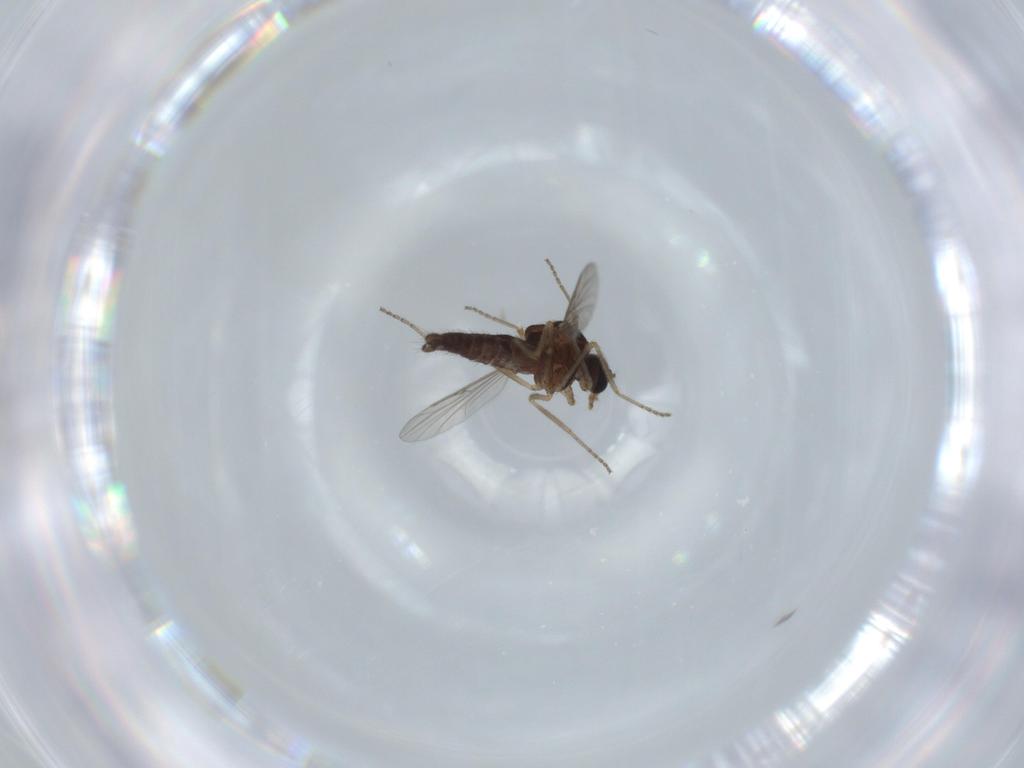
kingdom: Animalia
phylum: Arthropoda
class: Insecta
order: Diptera
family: Ceratopogonidae
